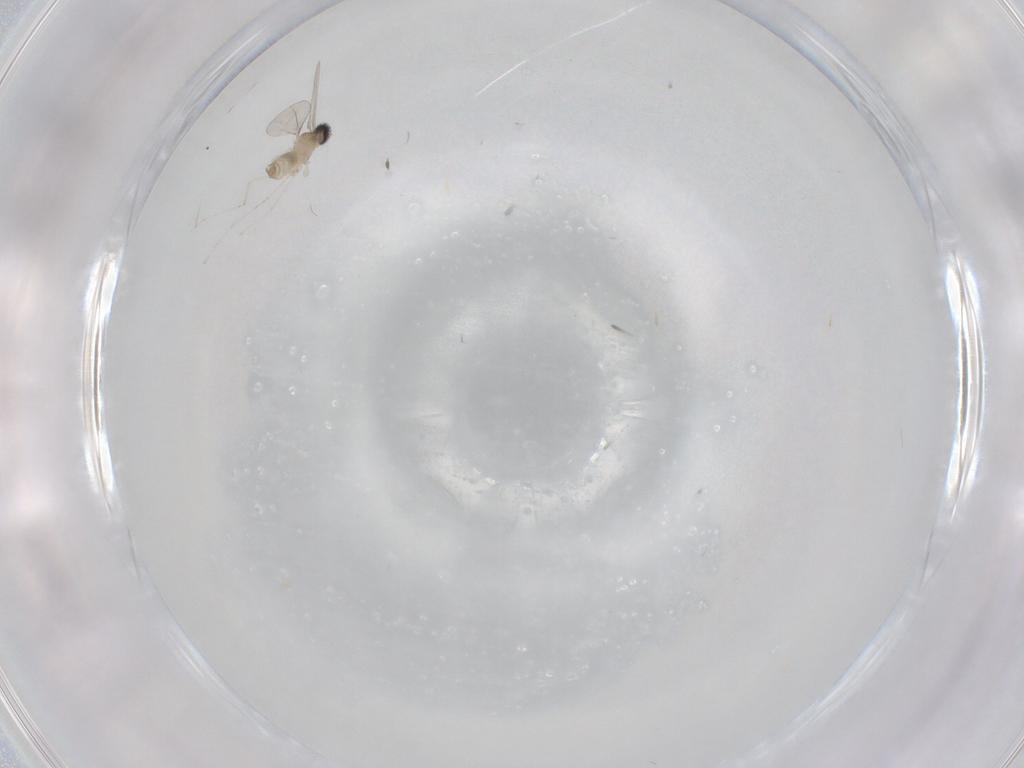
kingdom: Animalia
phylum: Arthropoda
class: Insecta
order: Diptera
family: Cecidomyiidae
